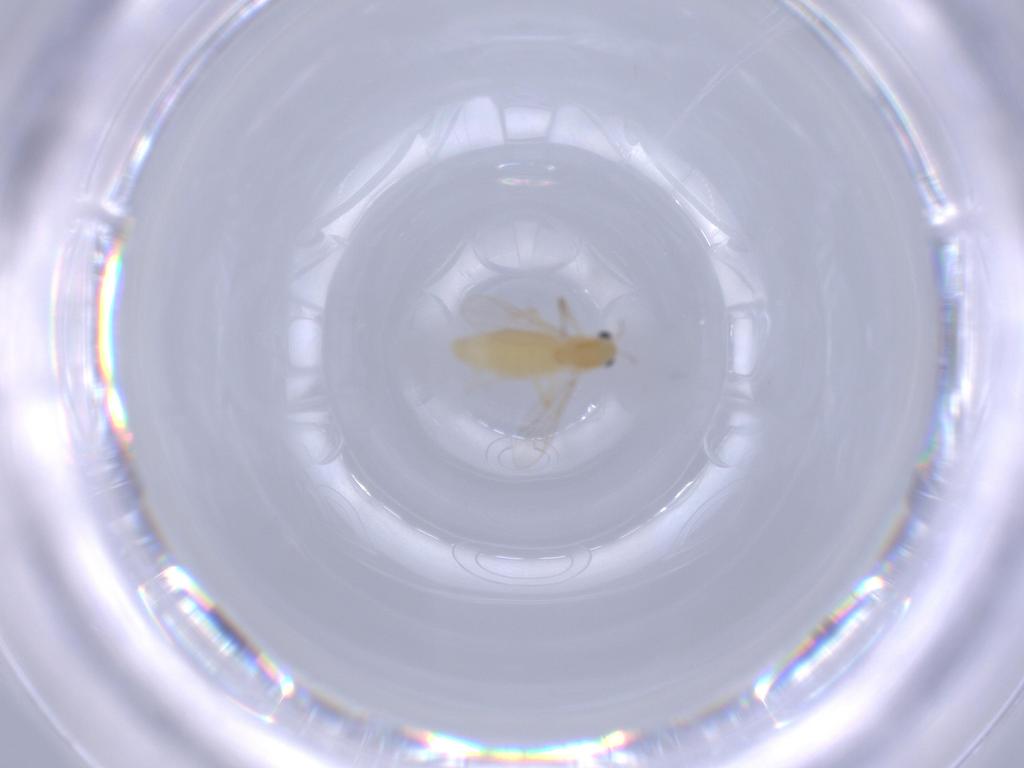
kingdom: Animalia
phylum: Arthropoda
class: Insecta
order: Diptera
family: Chironomidae
